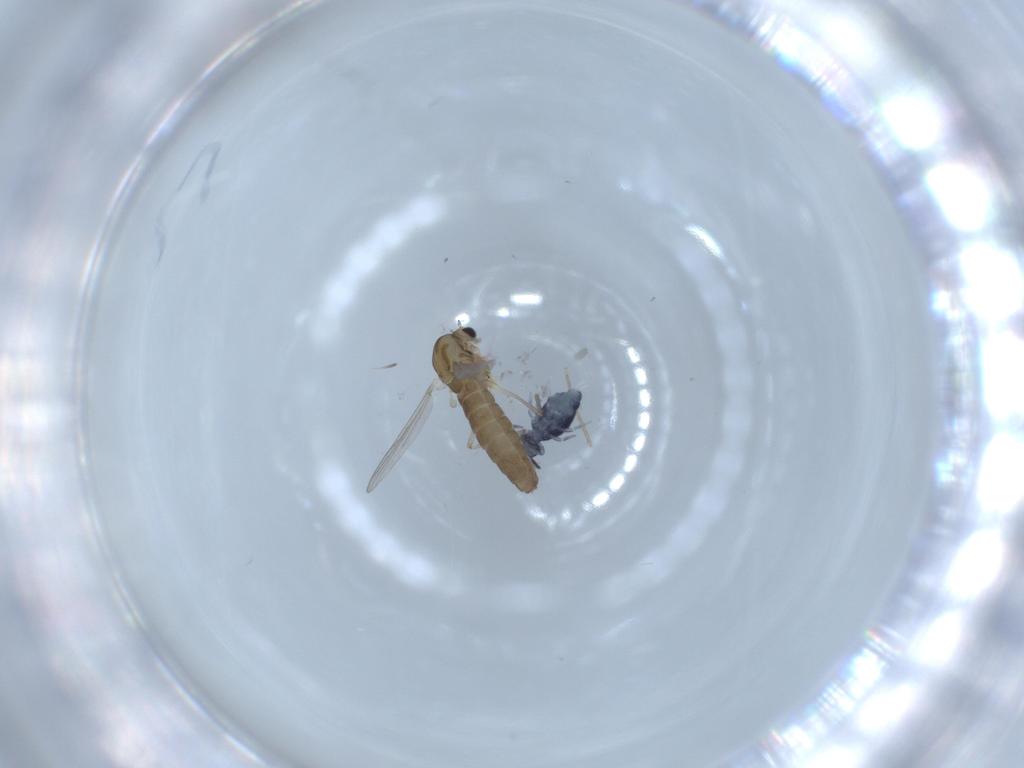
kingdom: Animalia
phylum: Arthropoda
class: Insecta
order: Diptera
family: Chironomidae
